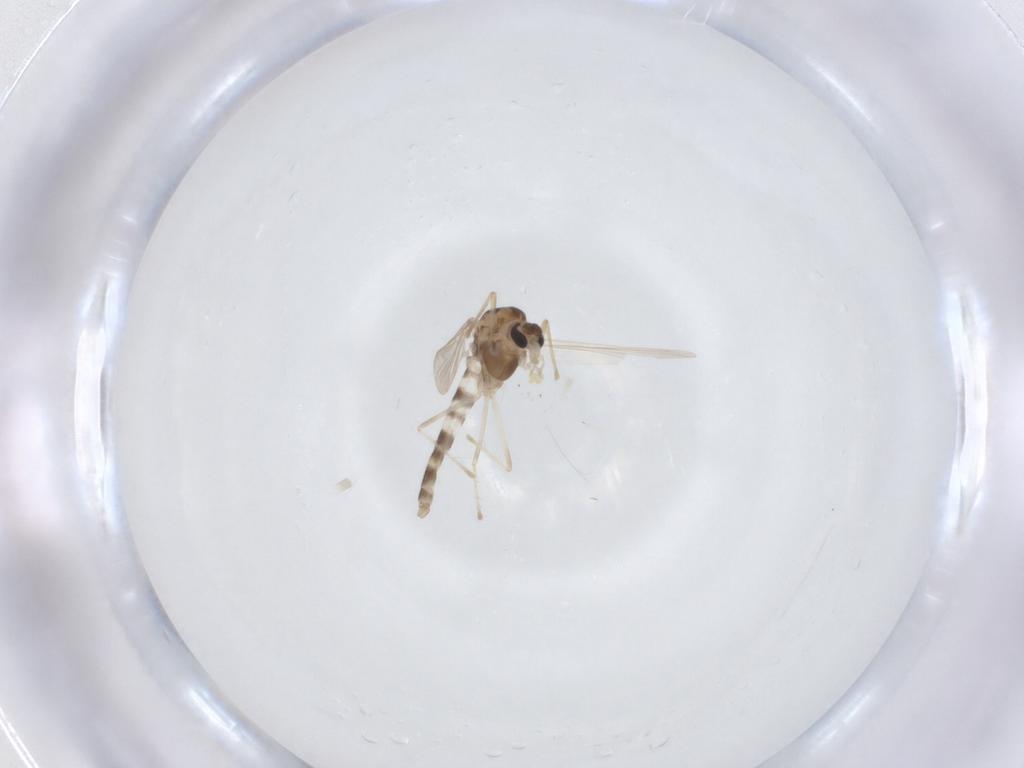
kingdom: Animalia
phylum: Arthropoda
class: Insecta
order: Diptera
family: Chironomidae
